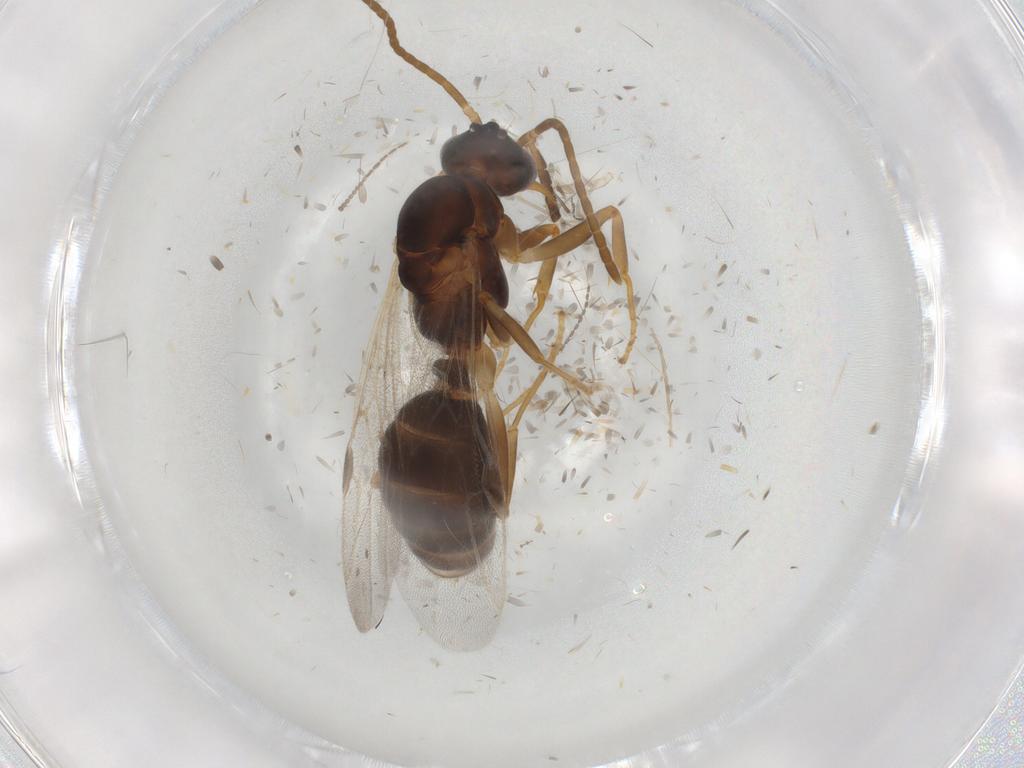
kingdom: Animalia
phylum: Arthropoda
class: Insecta
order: Hymenoptera
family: Formicidae
